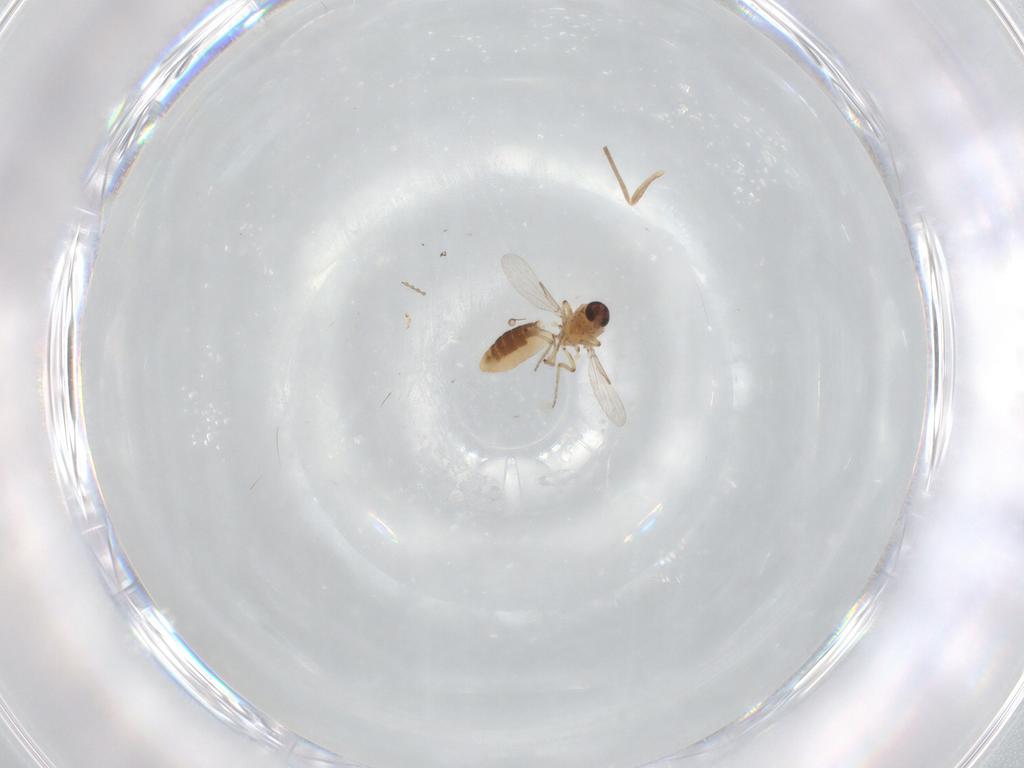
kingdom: Animalia
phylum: Arthropoda
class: Insecta
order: Diptera
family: Ceratopogonidae
